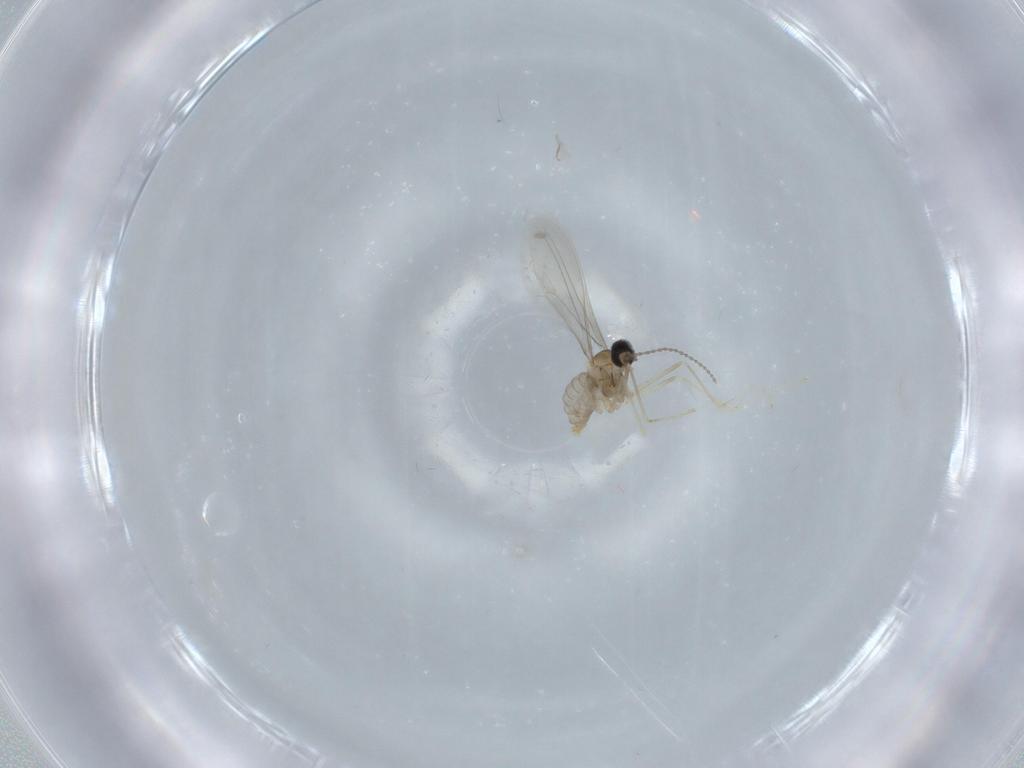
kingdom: Animalia
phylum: Arthropoda
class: Insecta
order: Diptera
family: Cecidomyiidae
